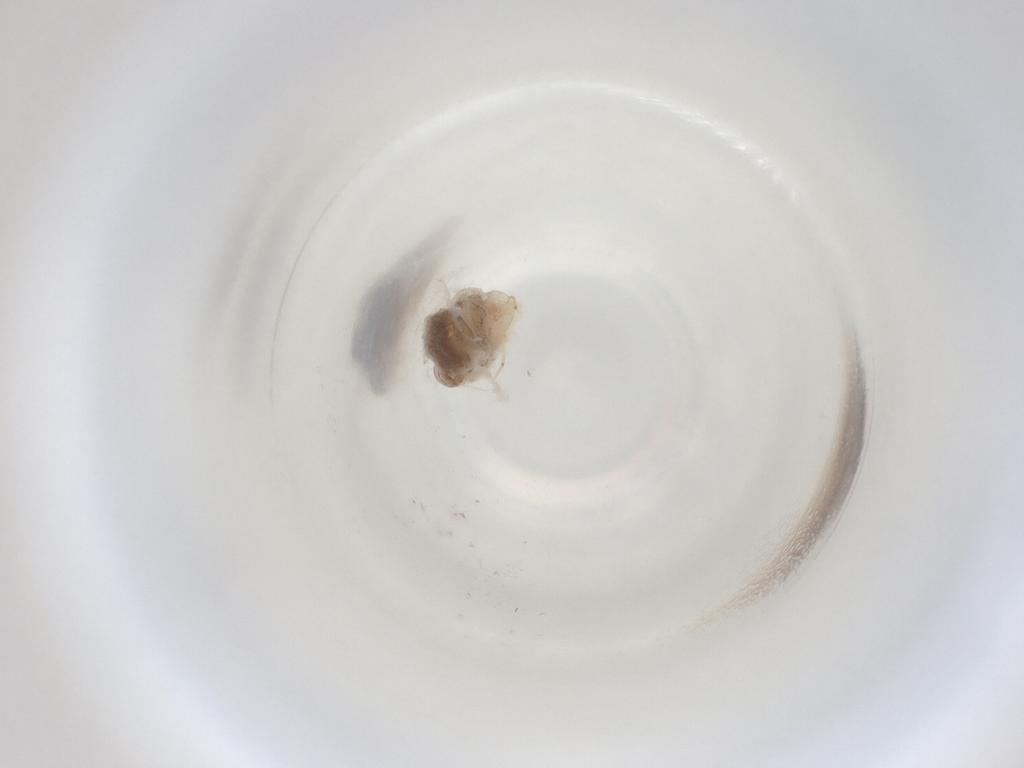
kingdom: Animalia
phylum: Arthropoda
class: Insecta
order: Diptera
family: Cecidomyiidae
